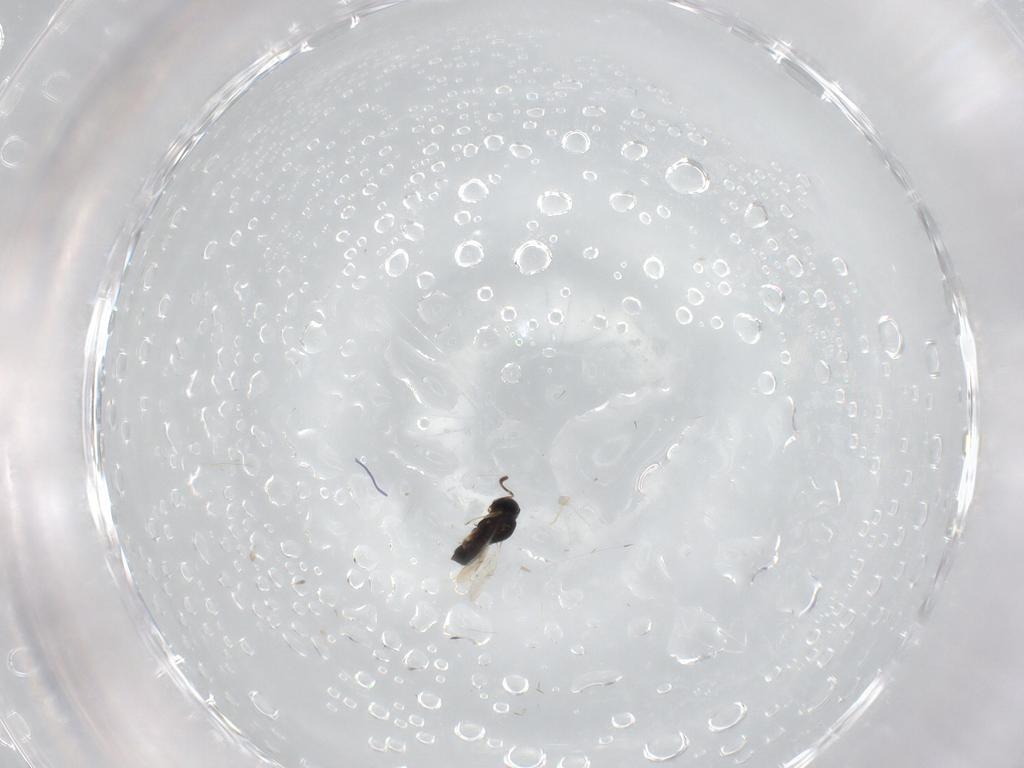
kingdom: Animalia
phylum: Arthropoda
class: Insecta
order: Hymenoptera
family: Scelionidae
